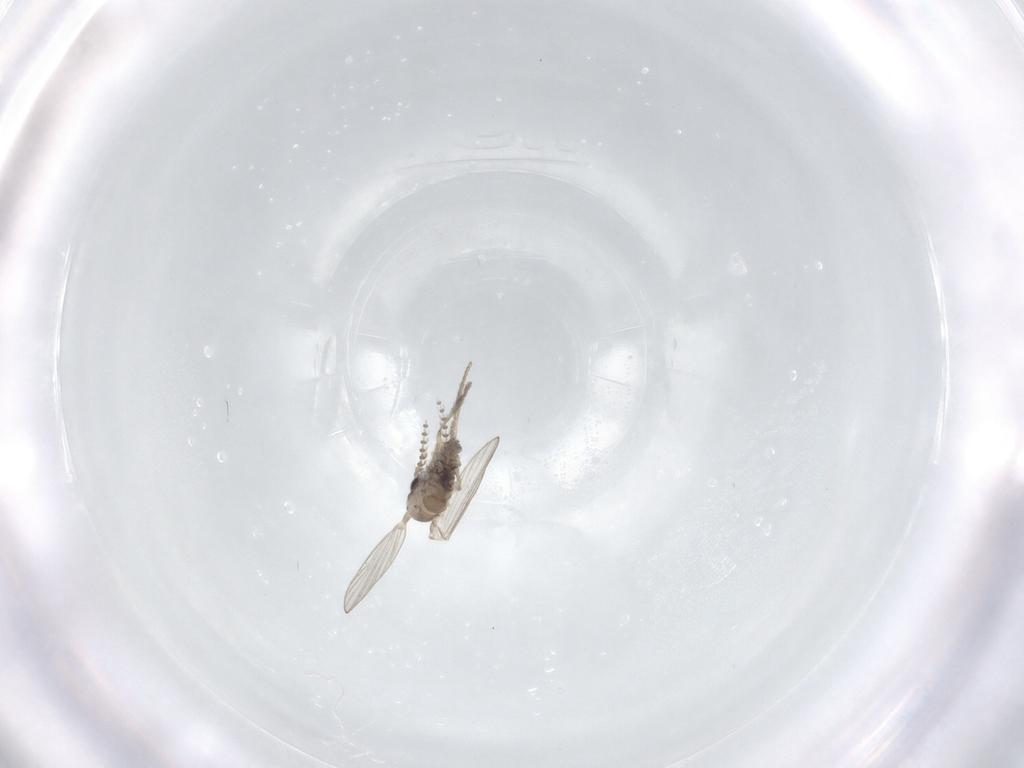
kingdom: Animalia
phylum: Arthropoda
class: Insecta
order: Diptera
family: Psychodidae
